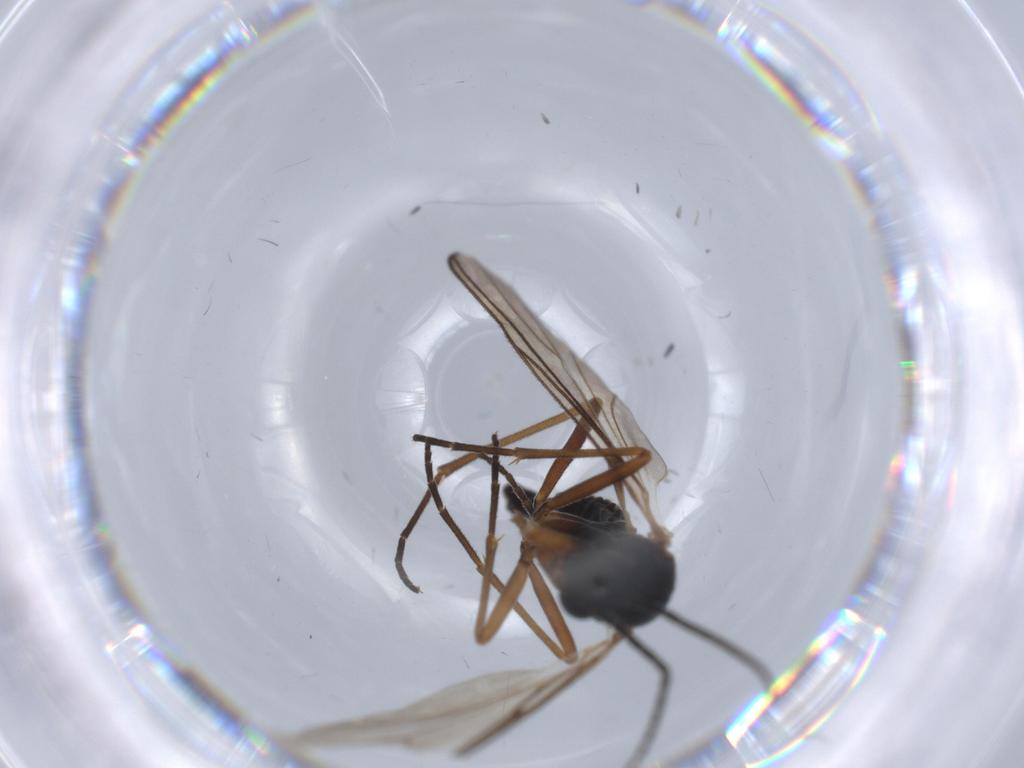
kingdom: Animalia
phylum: Arthropoda
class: Insecta
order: Diptera
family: Sciaridae
